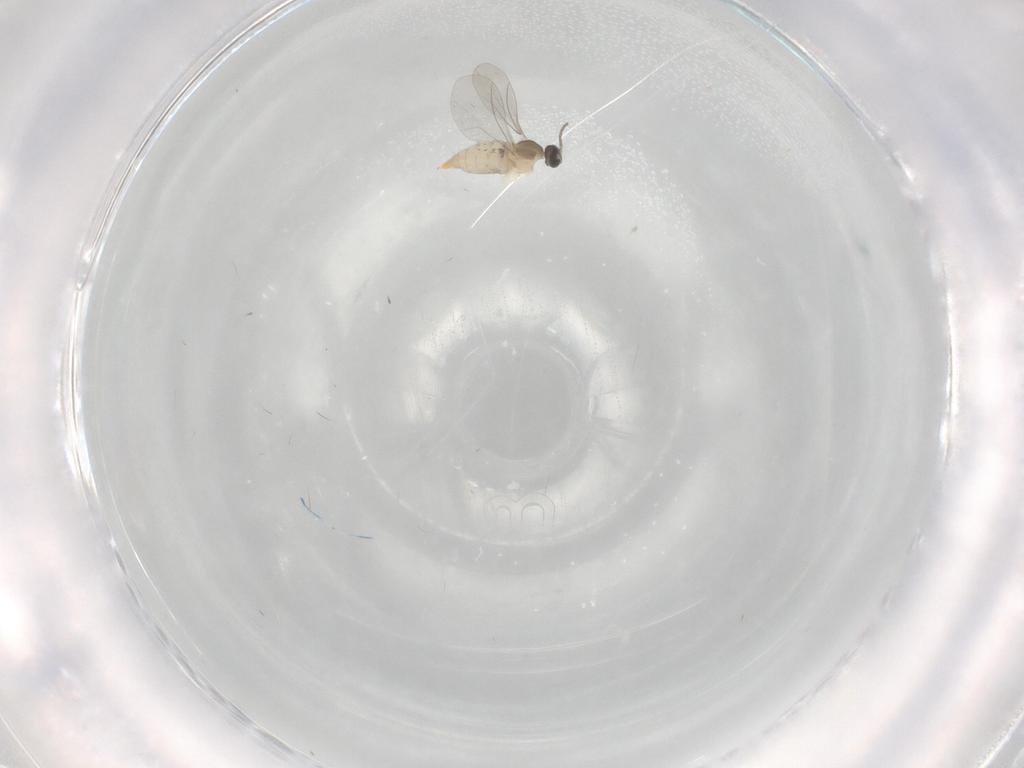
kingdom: Animalia
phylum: Arthropoda
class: Insecta
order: Diptera
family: Cecidomyiidae
